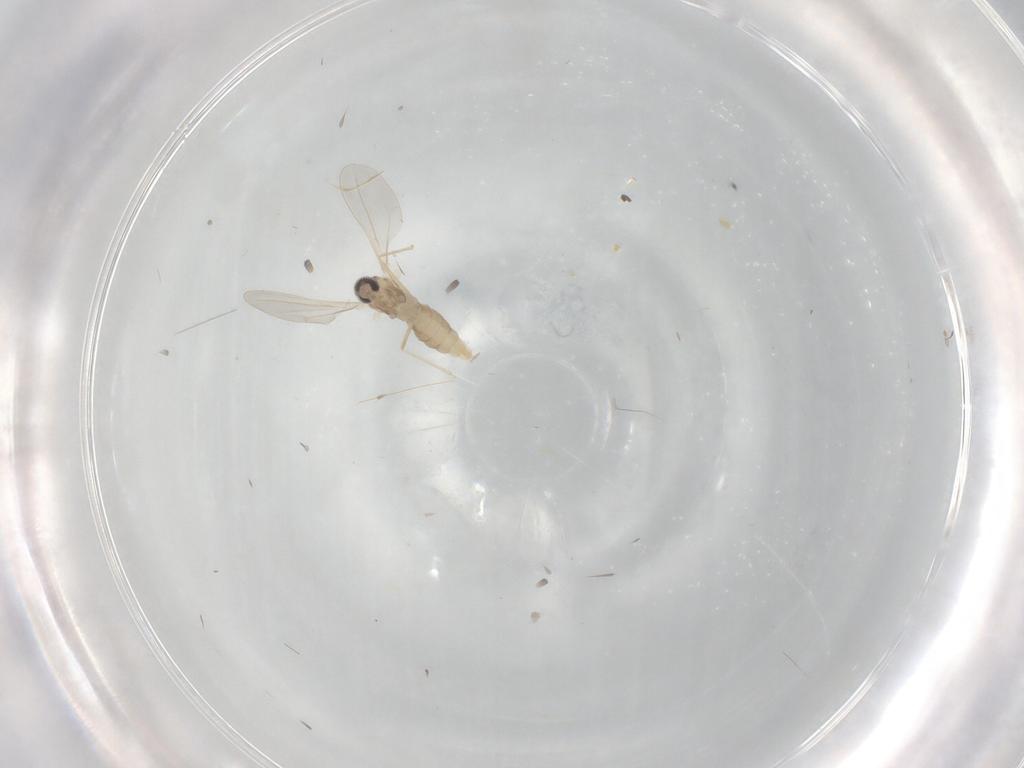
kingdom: Animalia
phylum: Arthropoda
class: Insecta
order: Diptera
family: Cecidomyiidae
